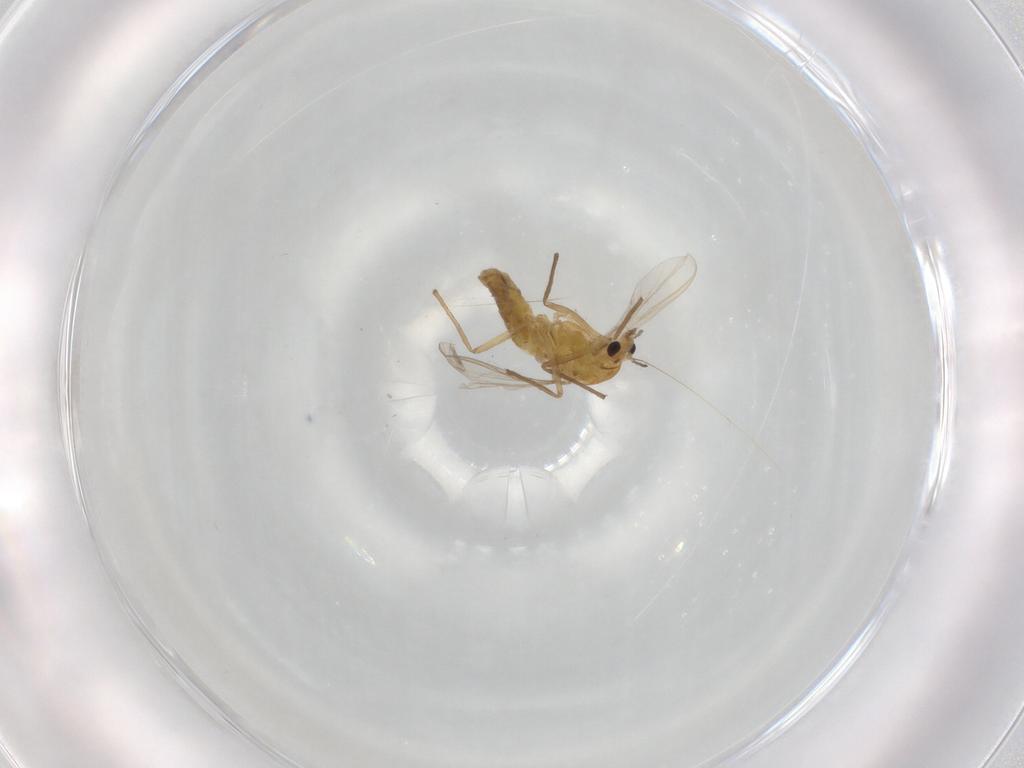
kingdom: Animalia
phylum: Arthropoda
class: Insecta
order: Diptera
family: Chironomidae
